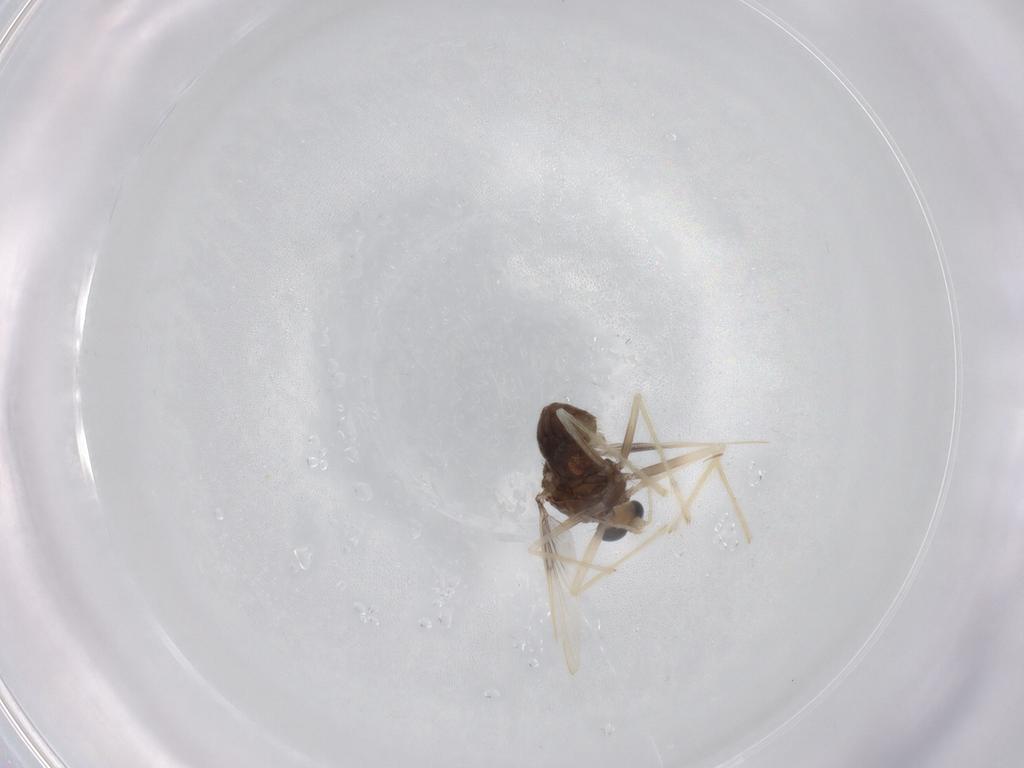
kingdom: Animalia
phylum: Arthropoda
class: Insecta
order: Diptera
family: Chironomidae
